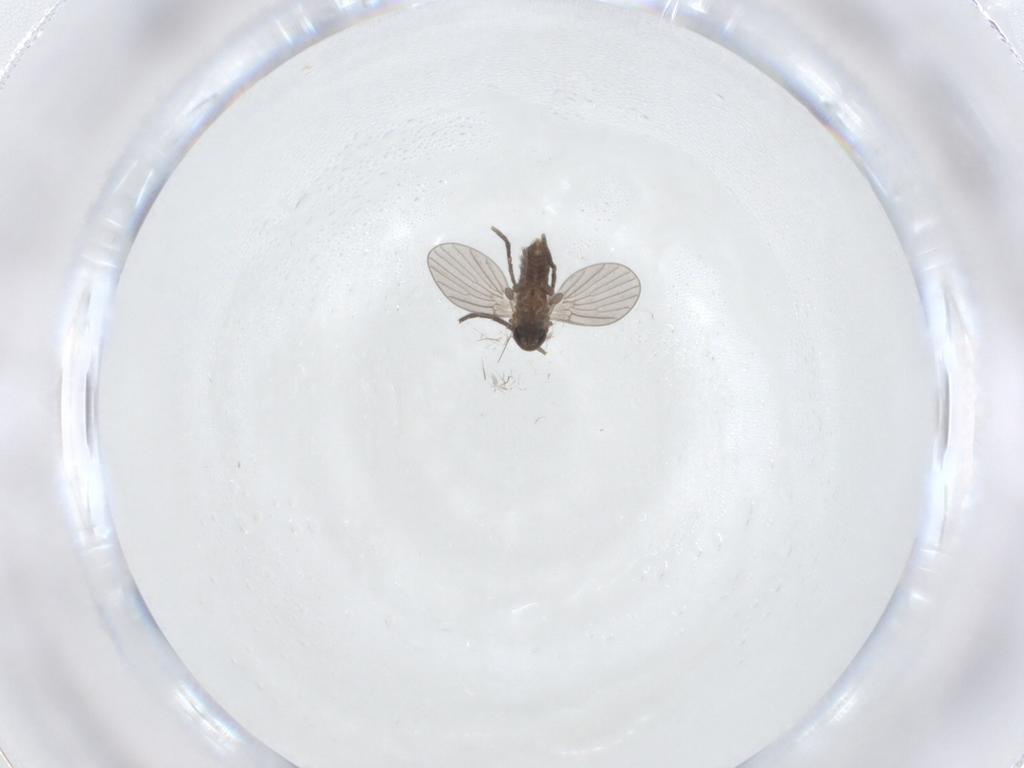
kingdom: Animalia
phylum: Arthropoda
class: Insecta
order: Diptera
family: Sciaridae
